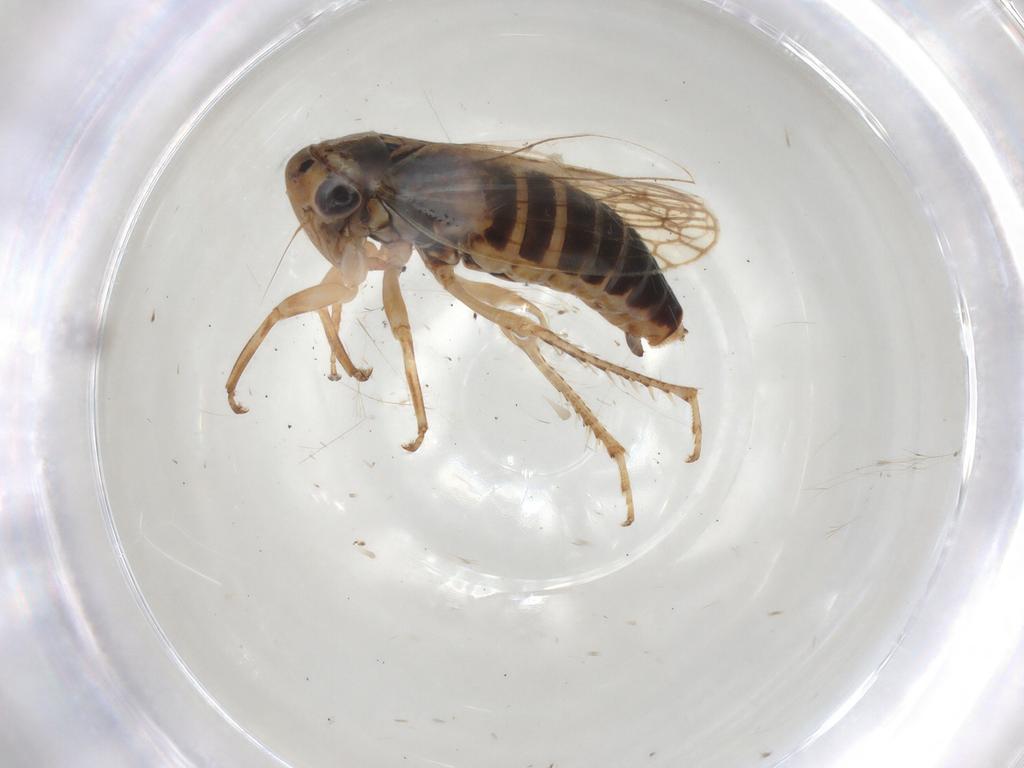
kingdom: Animalia
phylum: Arthropoda
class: Insecta
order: Hemiptera
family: Cicadellidae
